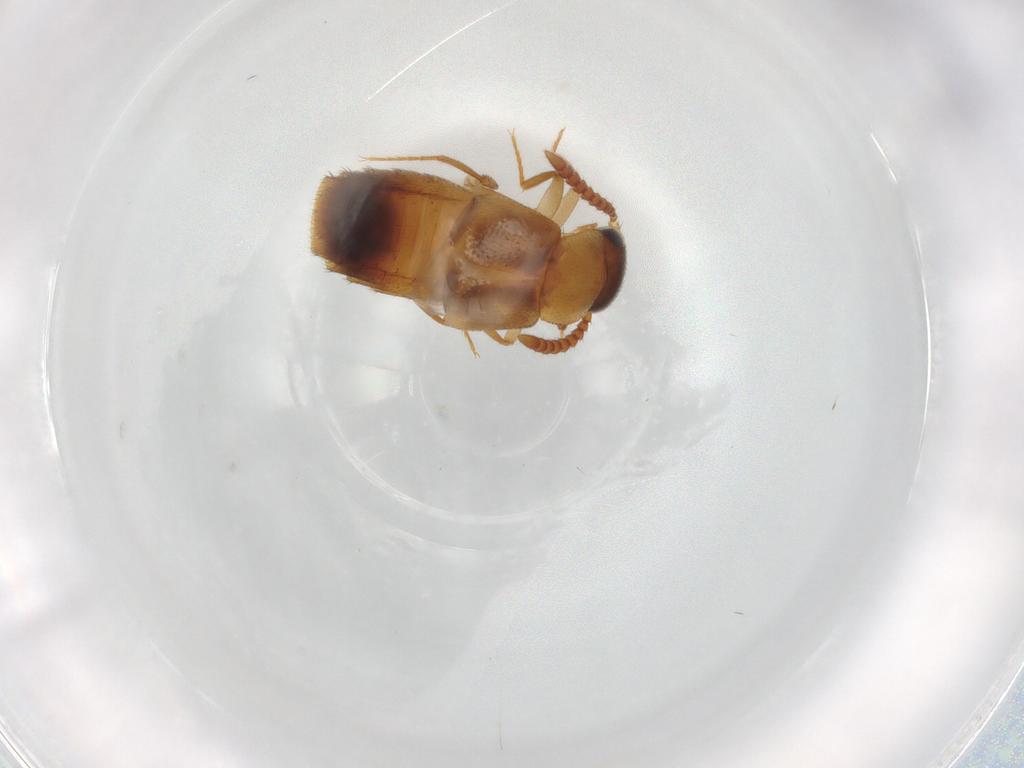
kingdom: Animalia
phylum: Arthropoda
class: Insecta
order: Coleoptera
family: Staphylinidae
